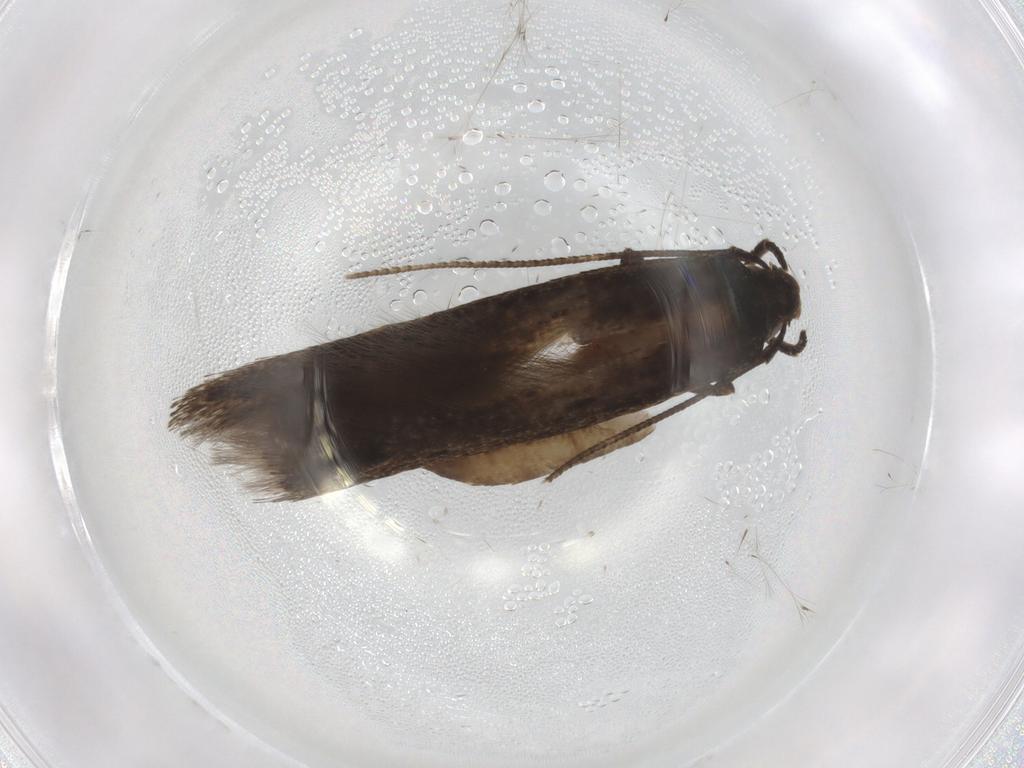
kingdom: Animalia
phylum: Arthropoda
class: Insecta
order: Lepidoptera
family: Cosmopterigidae
